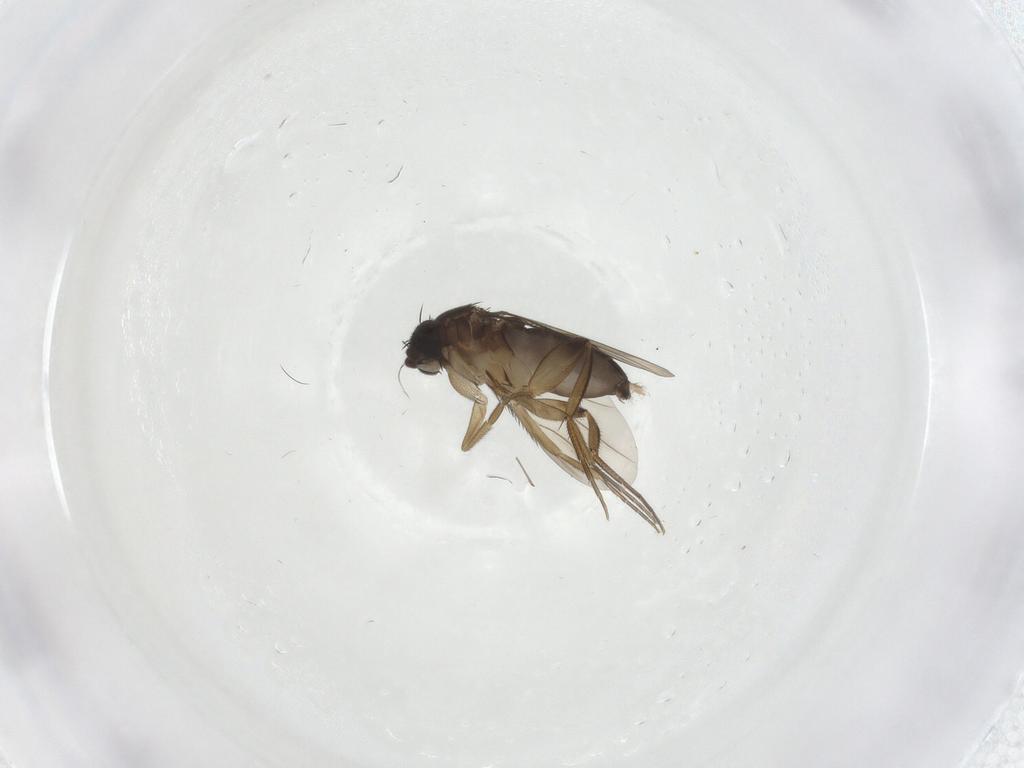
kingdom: Animalia
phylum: Arthropoda
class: Insecta
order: Diptera
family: Phoridae
